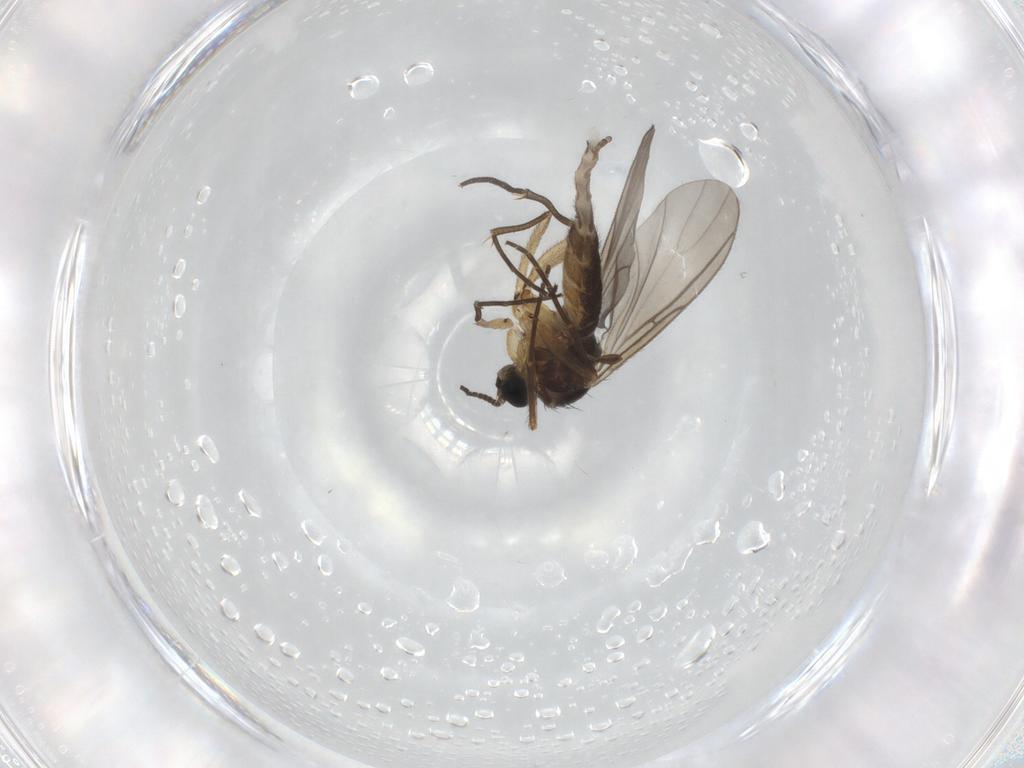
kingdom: Animalia
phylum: Arthropoda
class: Insecta
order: Diptera
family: Sciaridae
